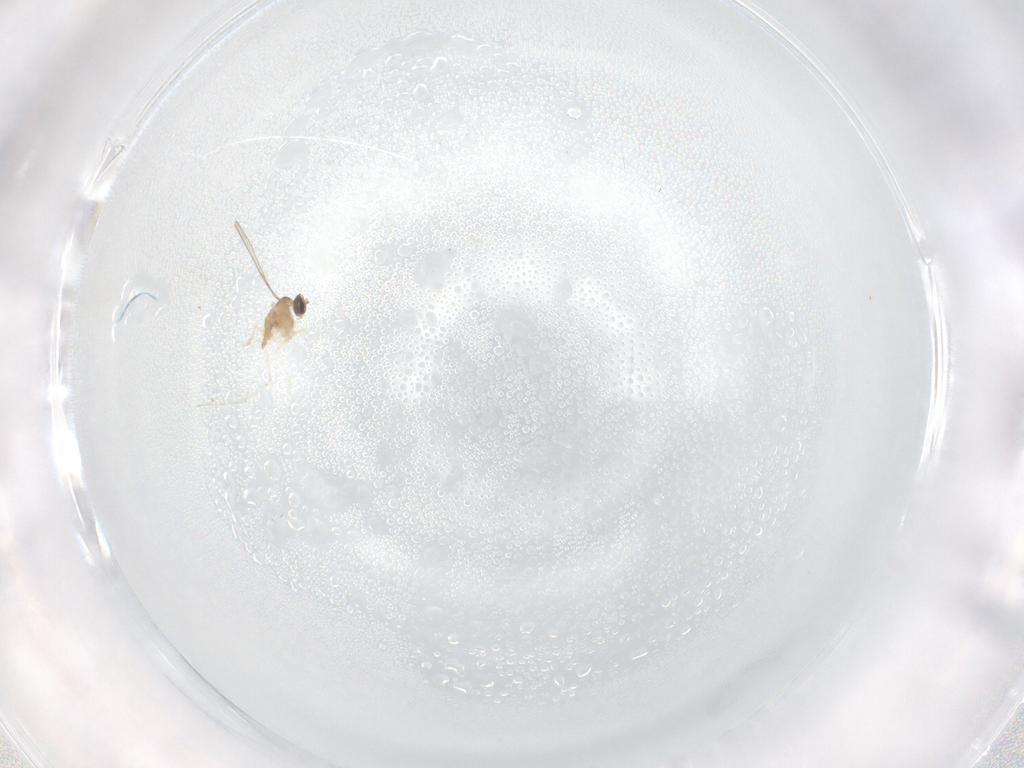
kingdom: Animalia
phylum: Arthropoda
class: Insecta
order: Diptera
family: Cecidomyiidae
